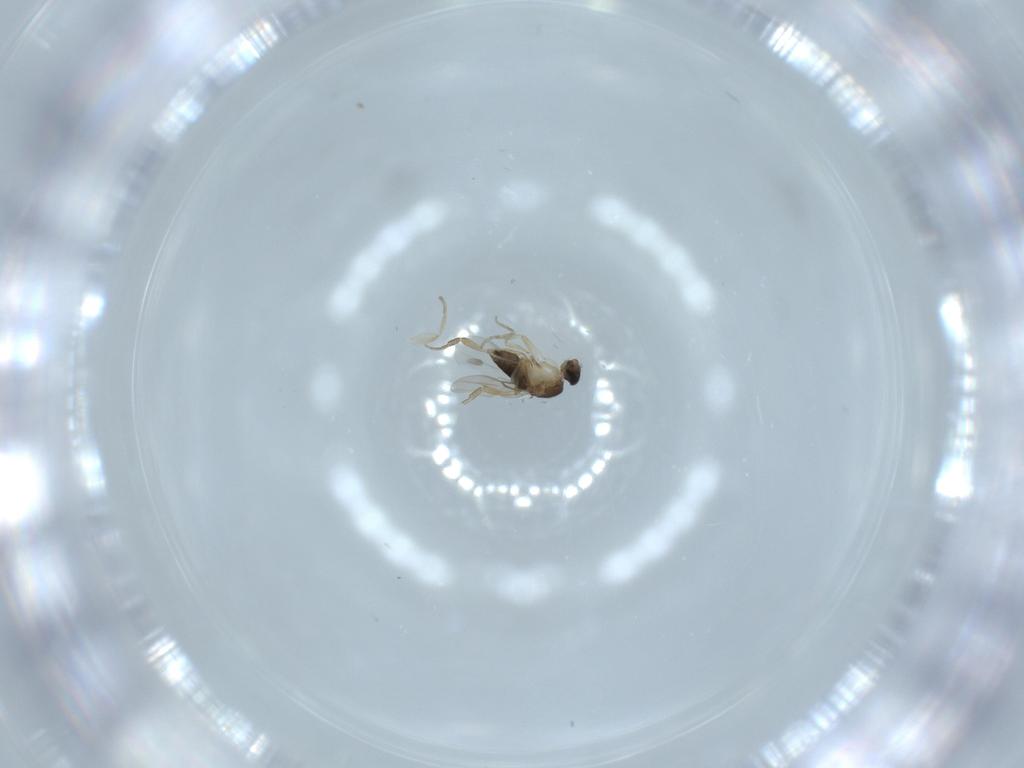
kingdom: Animalia
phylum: Arthropoda
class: Insecta
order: Diptera
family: Phoridae
